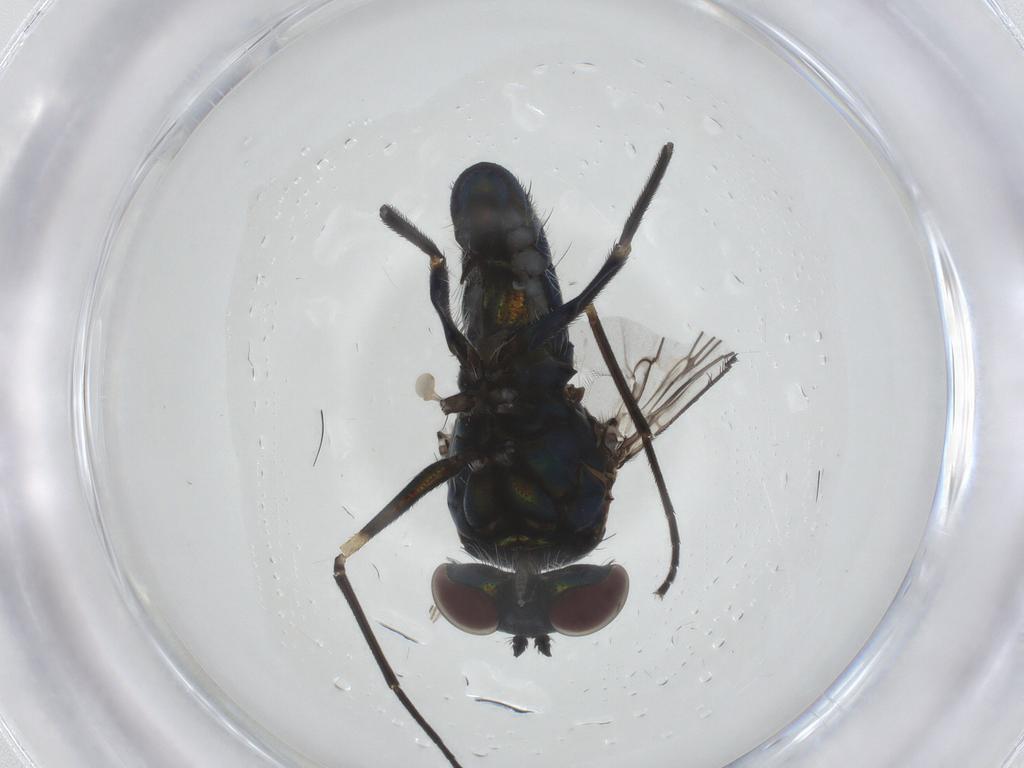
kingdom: Animalia
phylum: Arthropoda
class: Insecta
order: Diptera
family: Dolichopodidae
